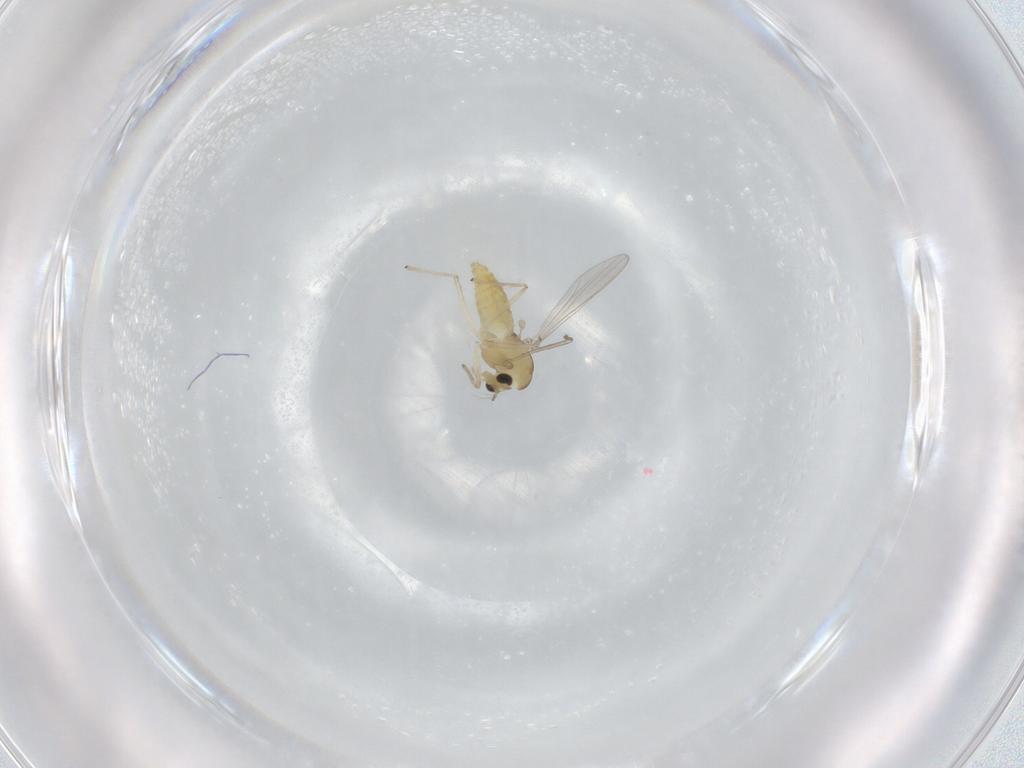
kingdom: Animalia
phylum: Arthropoda
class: Insecta
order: Diptera
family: Chironomidae
